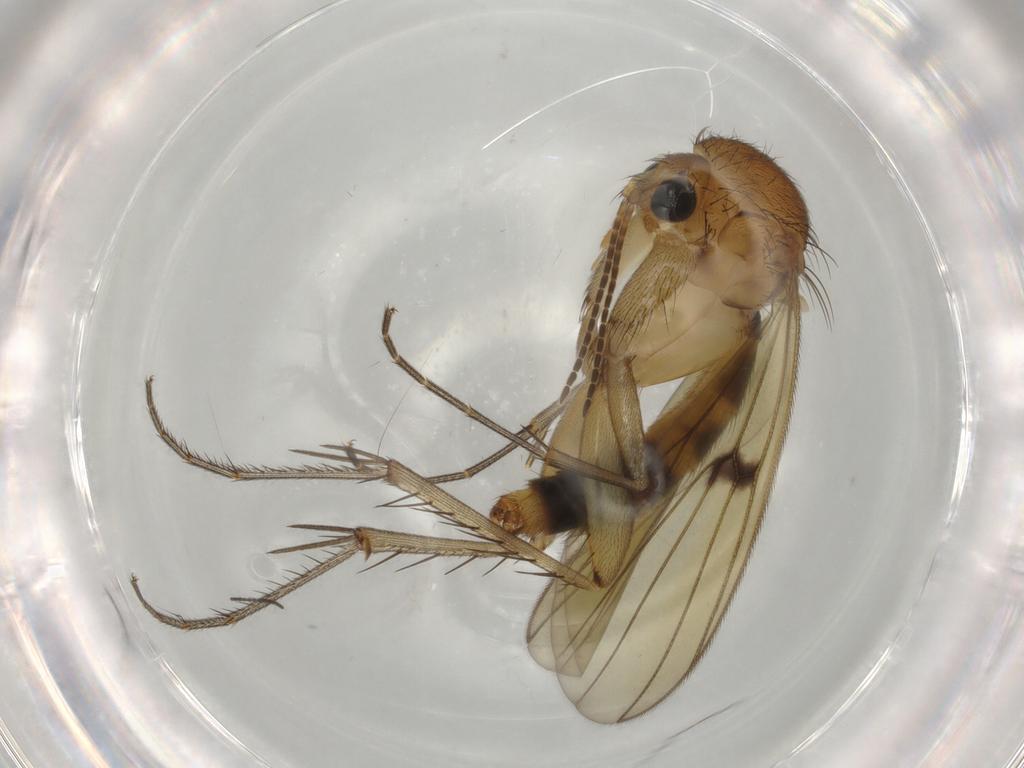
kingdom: Animalia
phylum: Arthropoda
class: Insecta
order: Diptera
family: Mycetophilidae
